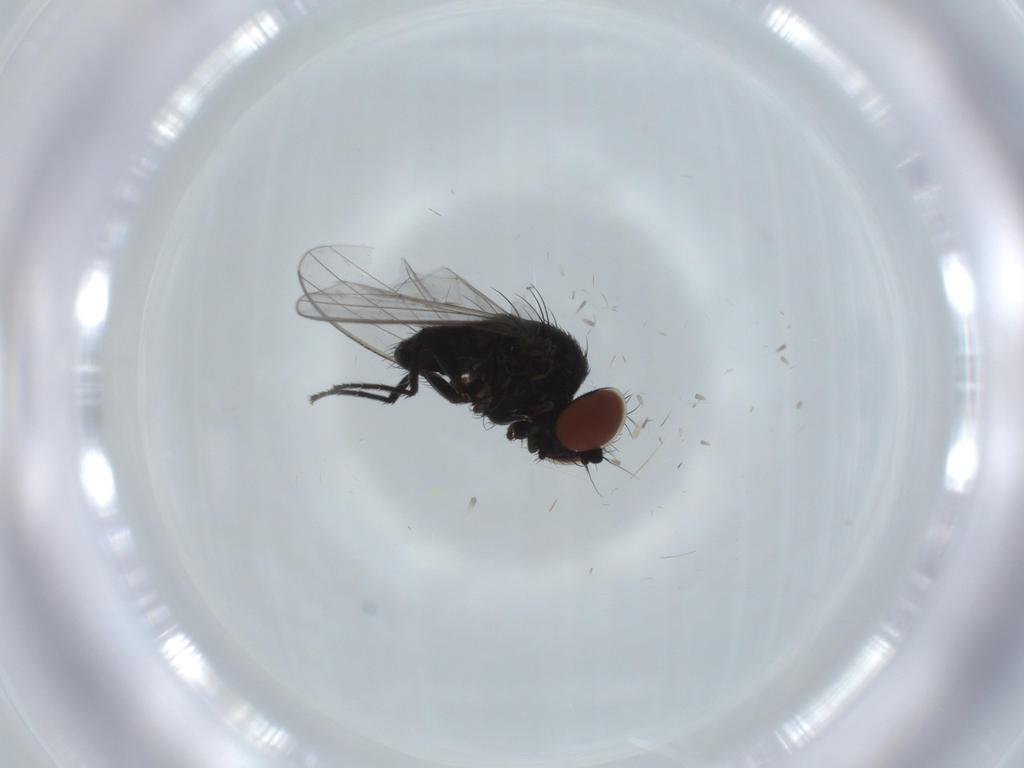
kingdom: Animalia
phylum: Arthropoda
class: Insecta
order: Diptera
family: Milichiidae
